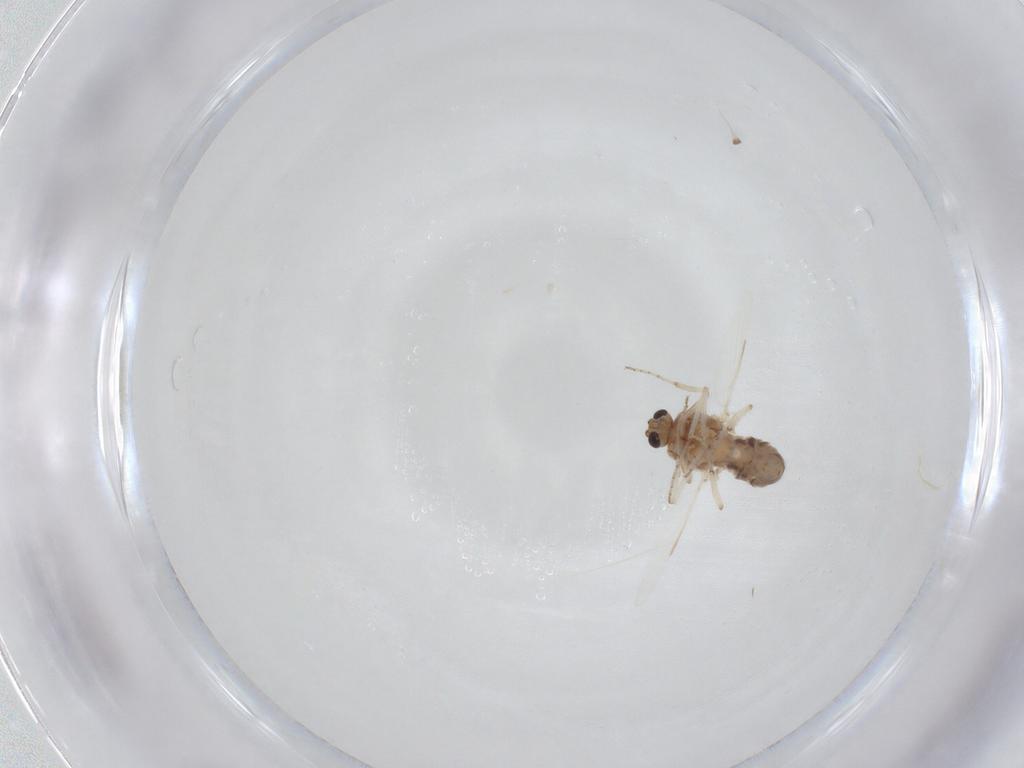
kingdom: Animalia
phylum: Arthropoda
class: Insecta
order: Diptera
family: Ceratopogonidae
